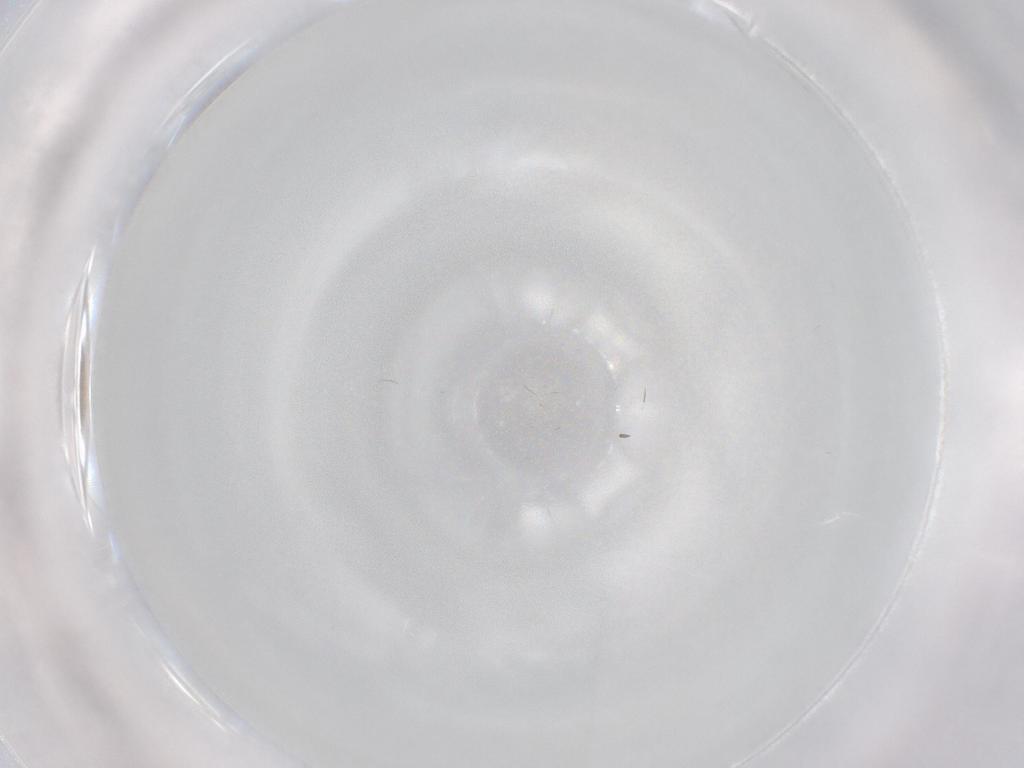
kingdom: Animalia
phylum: Arthropoda
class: Insecta
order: Diptera
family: Cecidomyiidae
